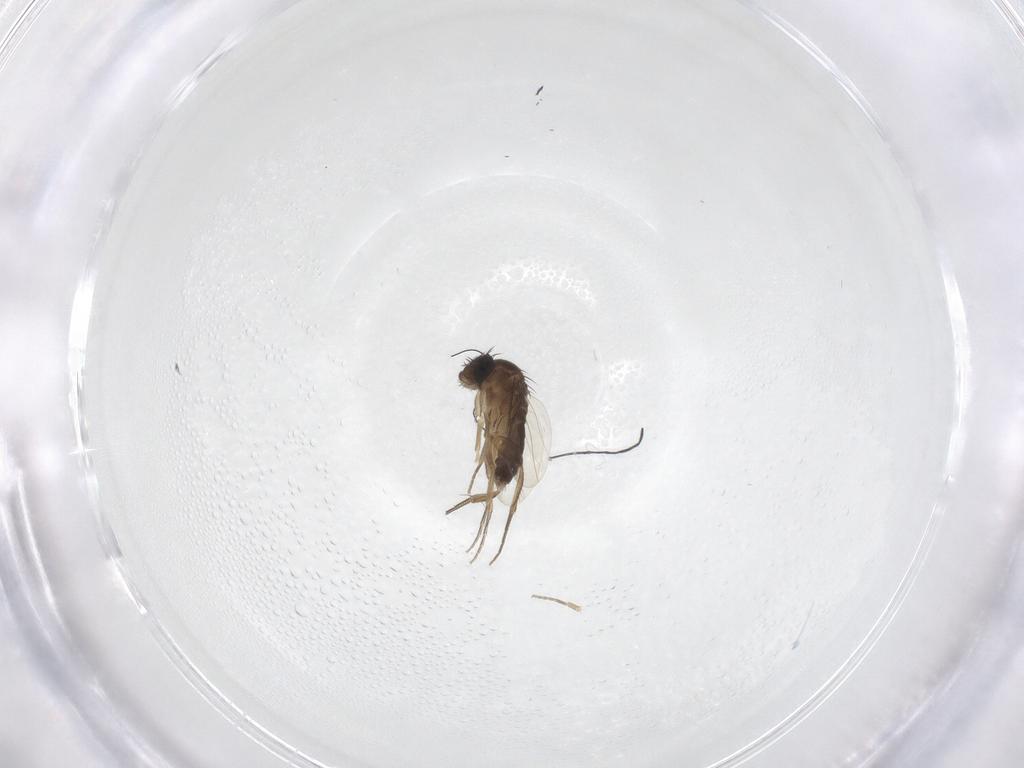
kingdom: Animalia
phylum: Arthropoda
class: Insecta
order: Diptera
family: Phoridae
